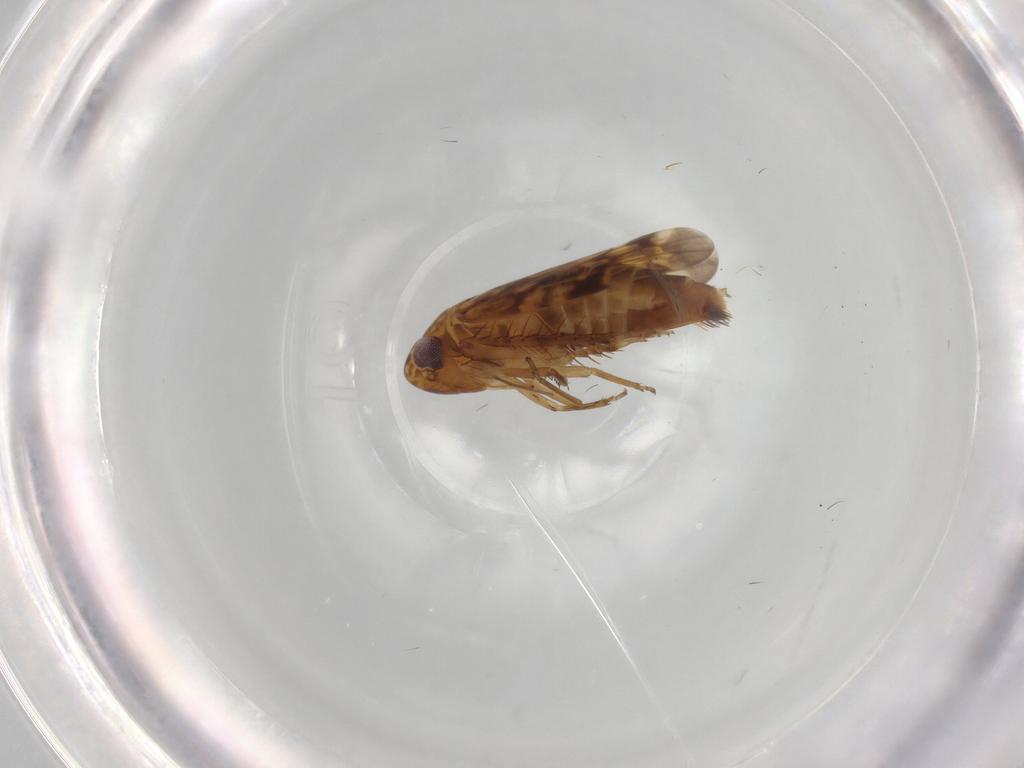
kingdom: Animalia
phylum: Arthropoda
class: Insecta
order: Hemiptera
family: Cicadellidae
